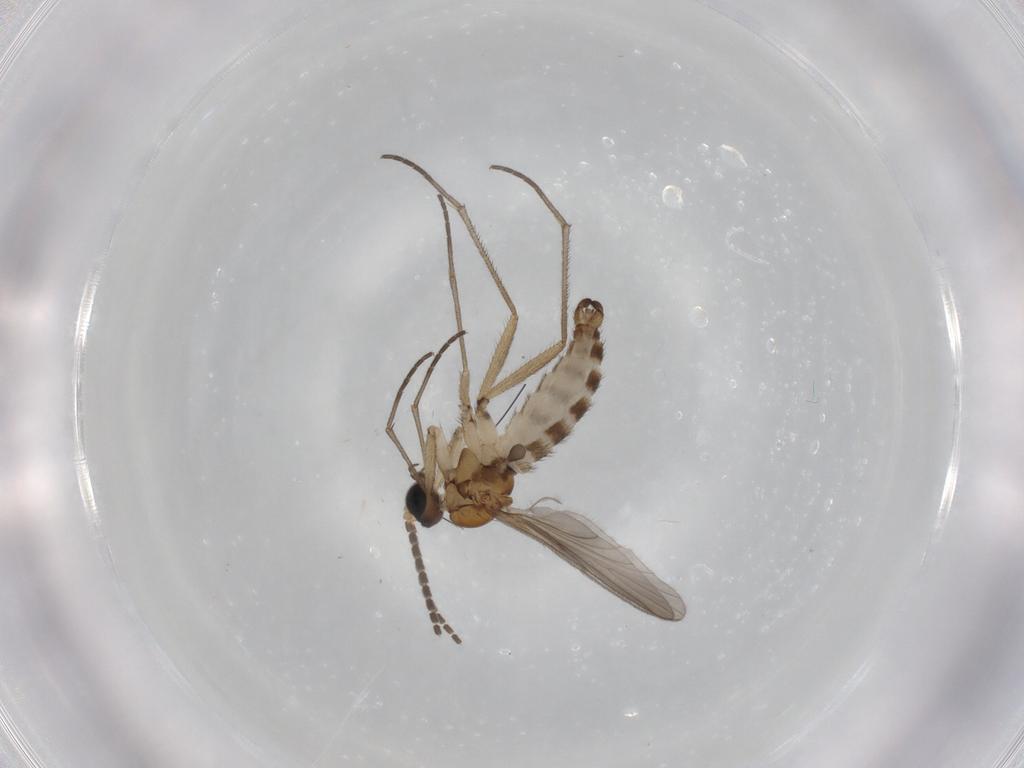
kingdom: Animalia
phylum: Arthropoda
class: Insecta
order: Diptera
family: Sciaridae
